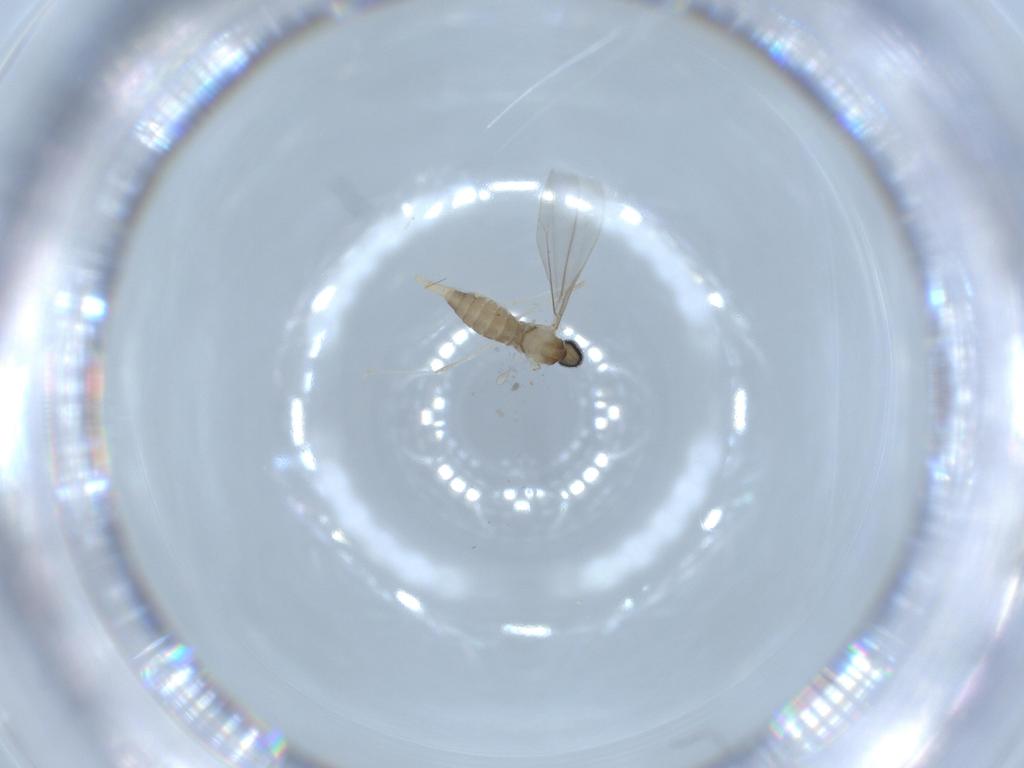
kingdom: Animalia
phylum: Arthropoda
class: Insecta
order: Diptera
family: Cecidomyiidae
